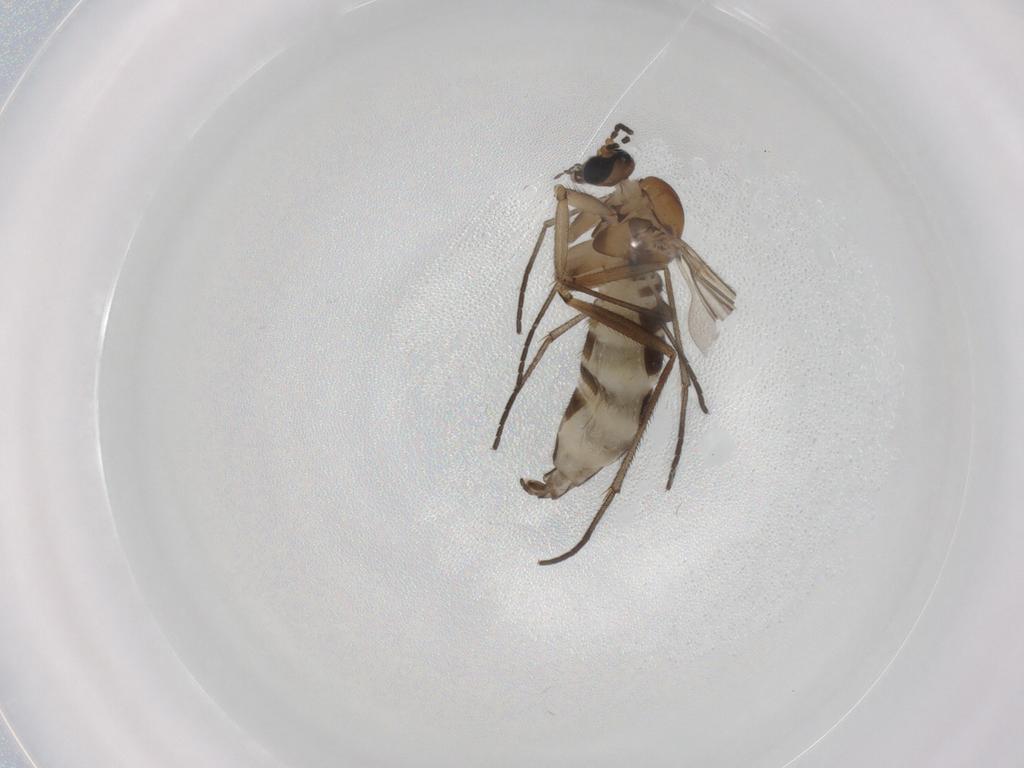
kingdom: Animalia
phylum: Arthropoda
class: Insecta
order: Diptera
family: Sciaridae
